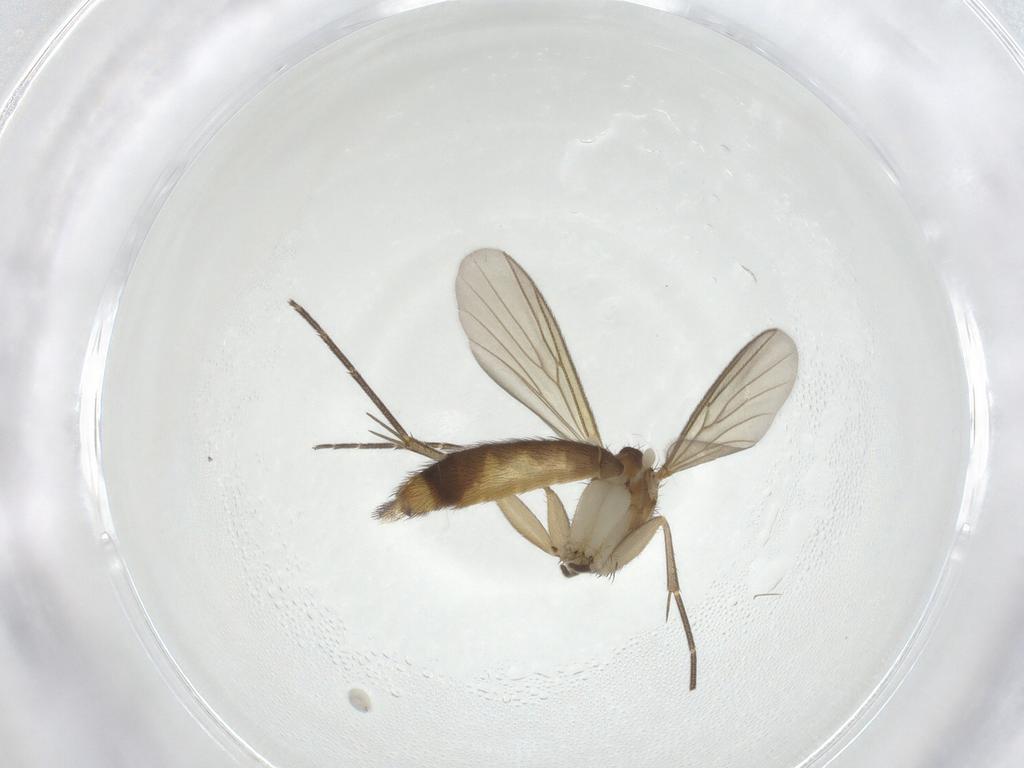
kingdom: Animalia
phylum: Arthropoda
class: Insecta
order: Diptera
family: Mycetophilidae
